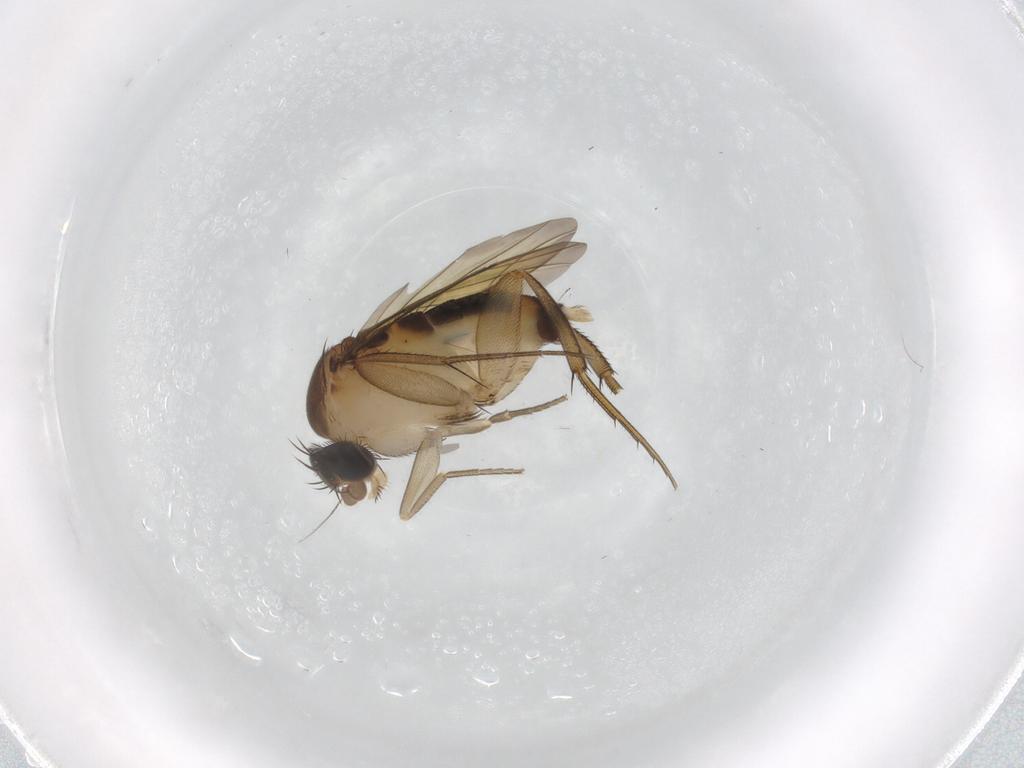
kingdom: Animalia
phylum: Arthropoda
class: Insecta
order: Diptera
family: Phoridae
